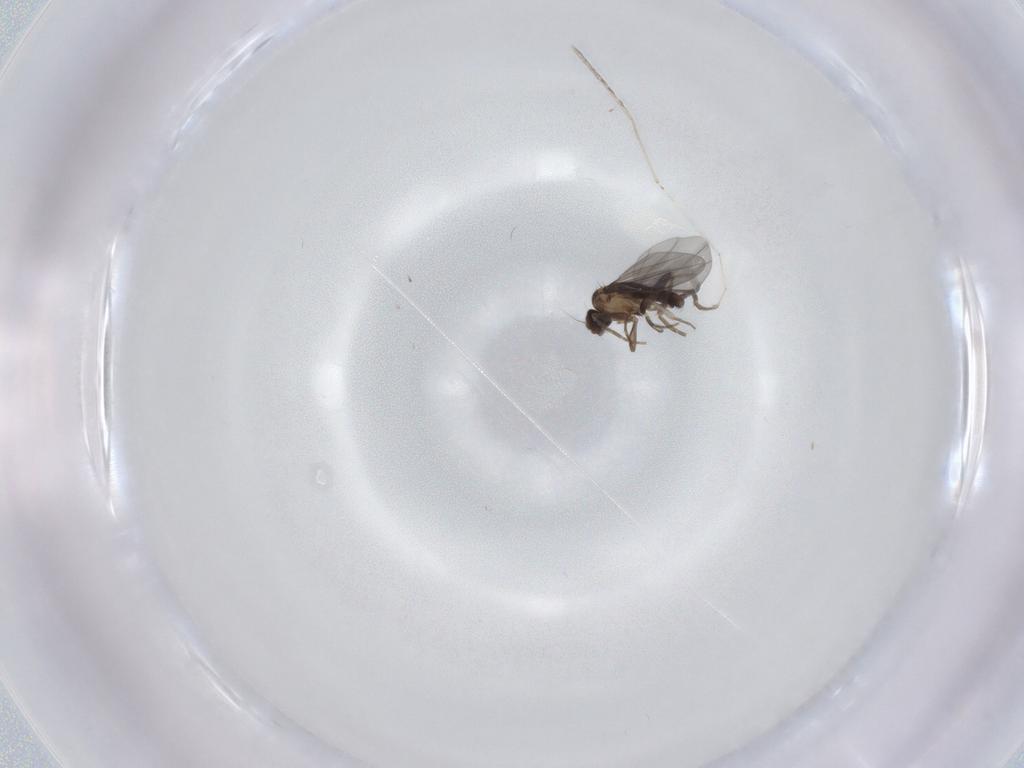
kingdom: Animalia
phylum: Arthropoda
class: Insecta
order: Diptera
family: Cecidomyiidae
